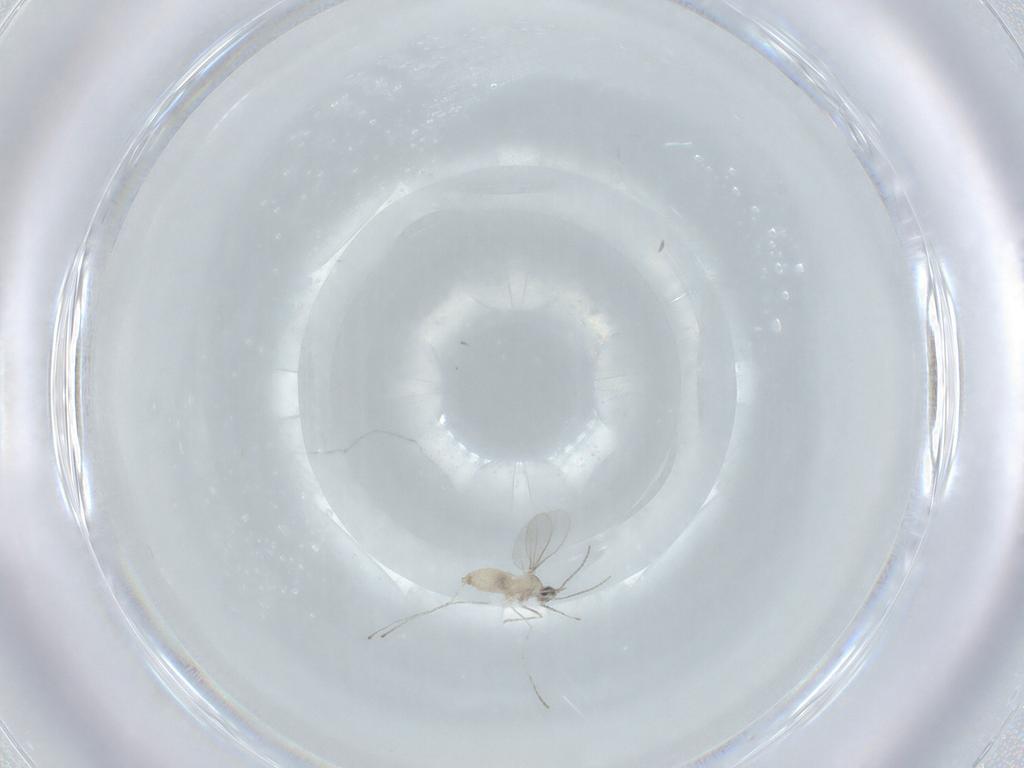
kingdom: Animalia
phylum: Arthropoda
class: Insecta
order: Diptera
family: Cecidomyiidae
